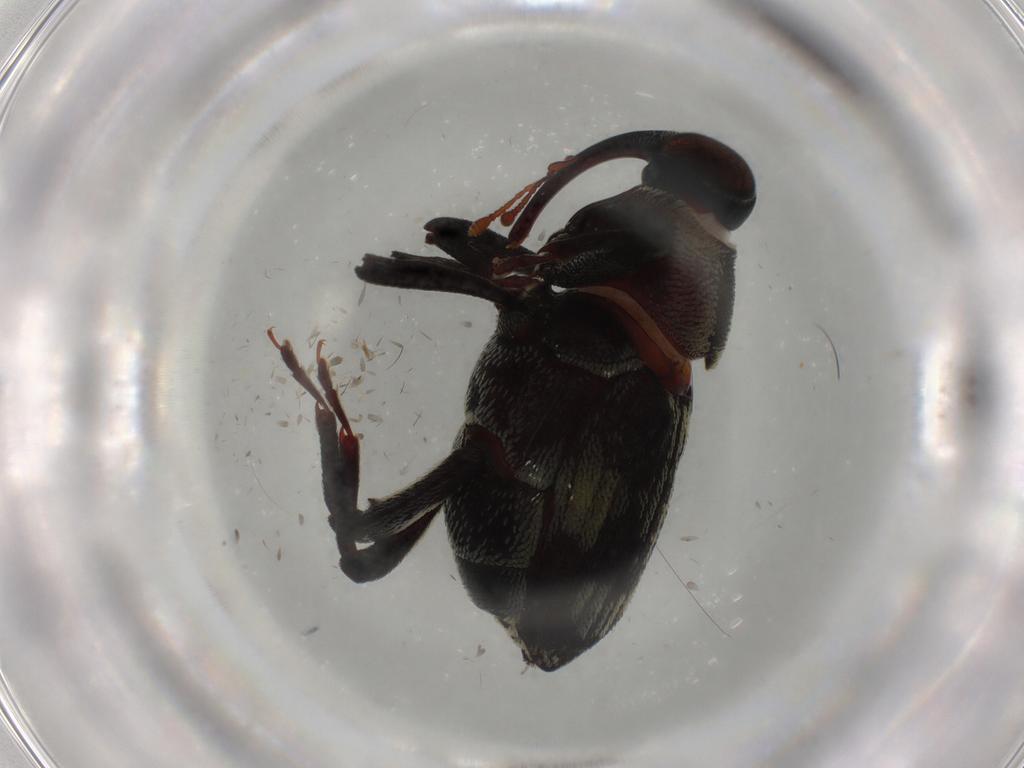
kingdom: Animalia
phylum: Arthropoda
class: Insecta
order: Coleoptera
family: Curculionidae
